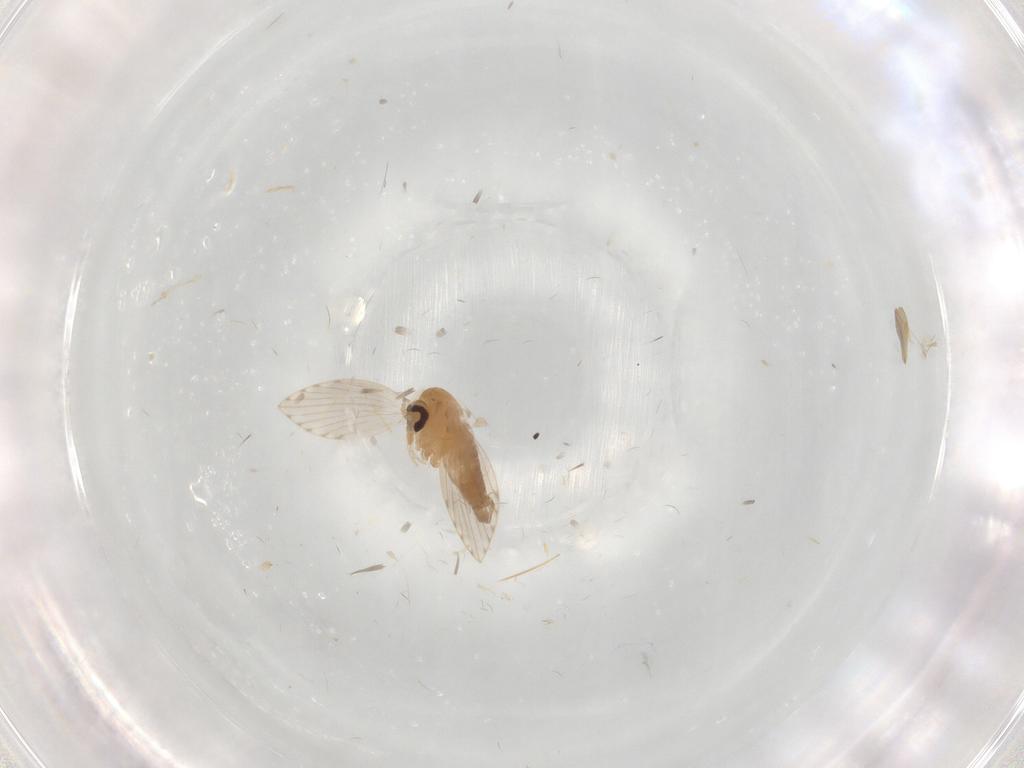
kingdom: Animalia
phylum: Arthropoda
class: Insecta
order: Diptera
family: Psychodidae
